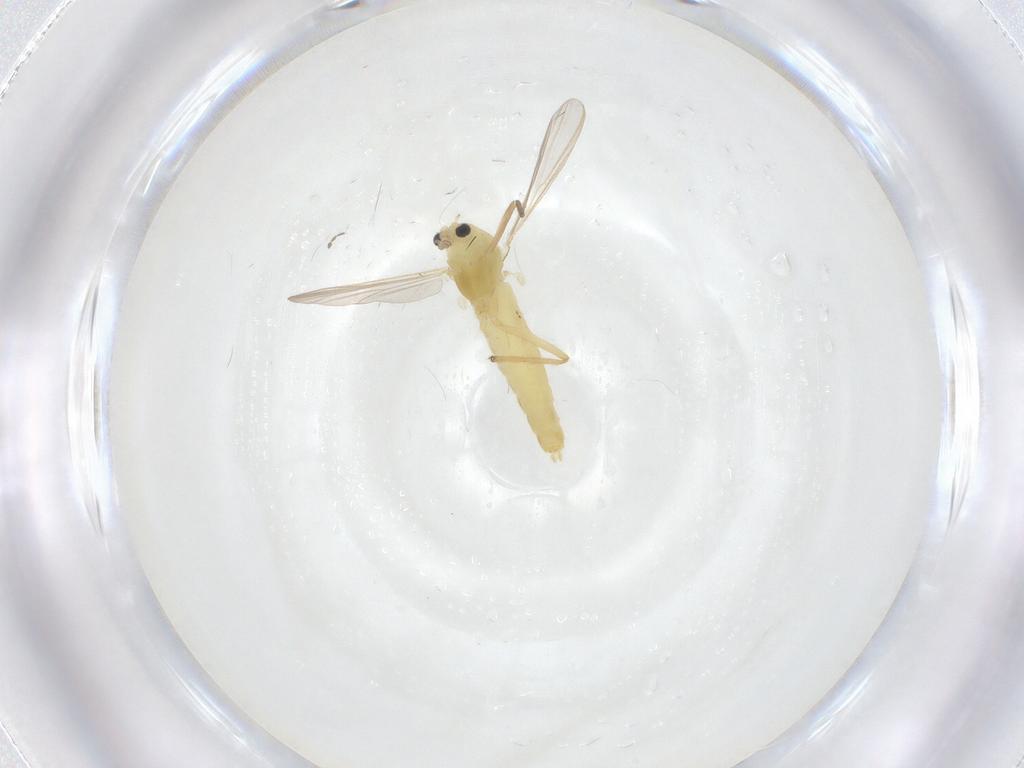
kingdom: Animalia
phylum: Arthropoda
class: Insecta
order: Diptera
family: Chironomidae
